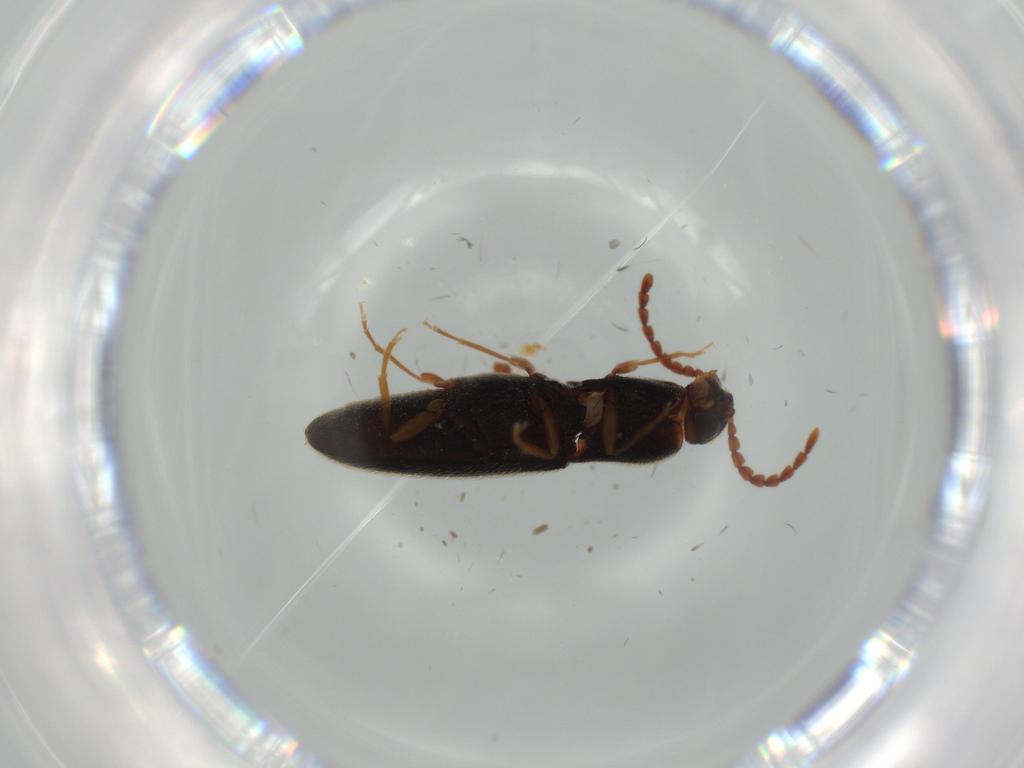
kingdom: Animalia
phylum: Arthropoda
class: Insecta
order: Coleoptera
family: Elateridae
